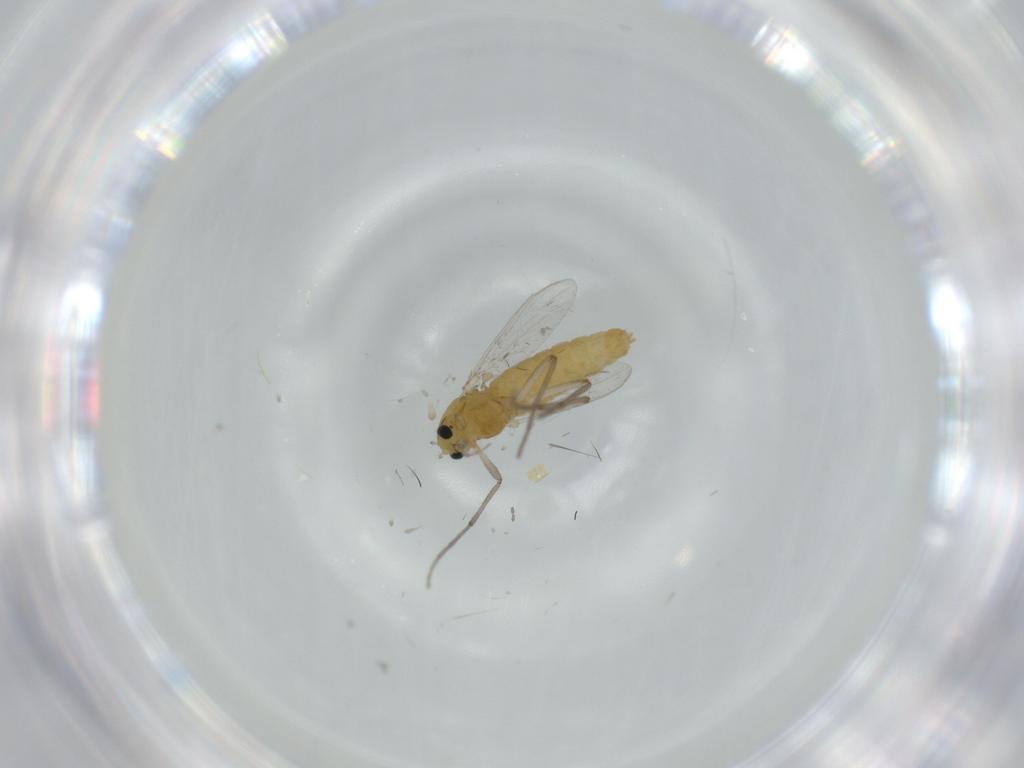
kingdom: Animalia
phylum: Arthropoda
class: Insecta
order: Diptera
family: Chironomidae
